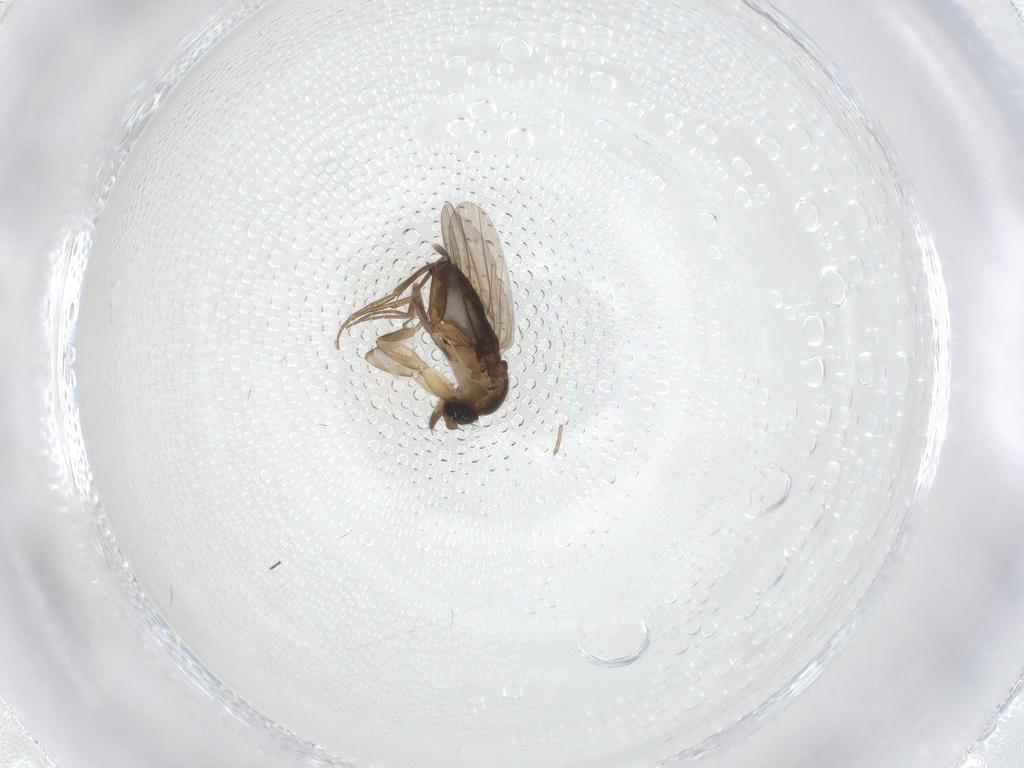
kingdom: Animalia
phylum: Arthropoda
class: Insecta
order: Diptera
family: Phoridae
